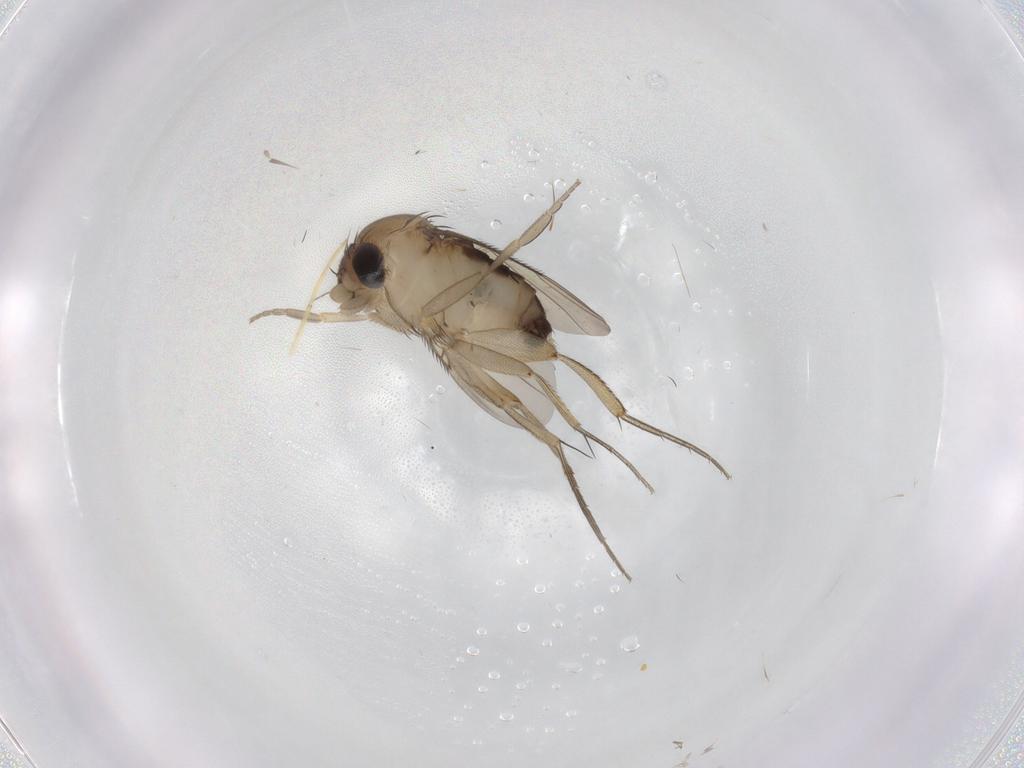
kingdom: Animalia
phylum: Arthropoda
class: Insecta
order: Diptera
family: Phoridae
